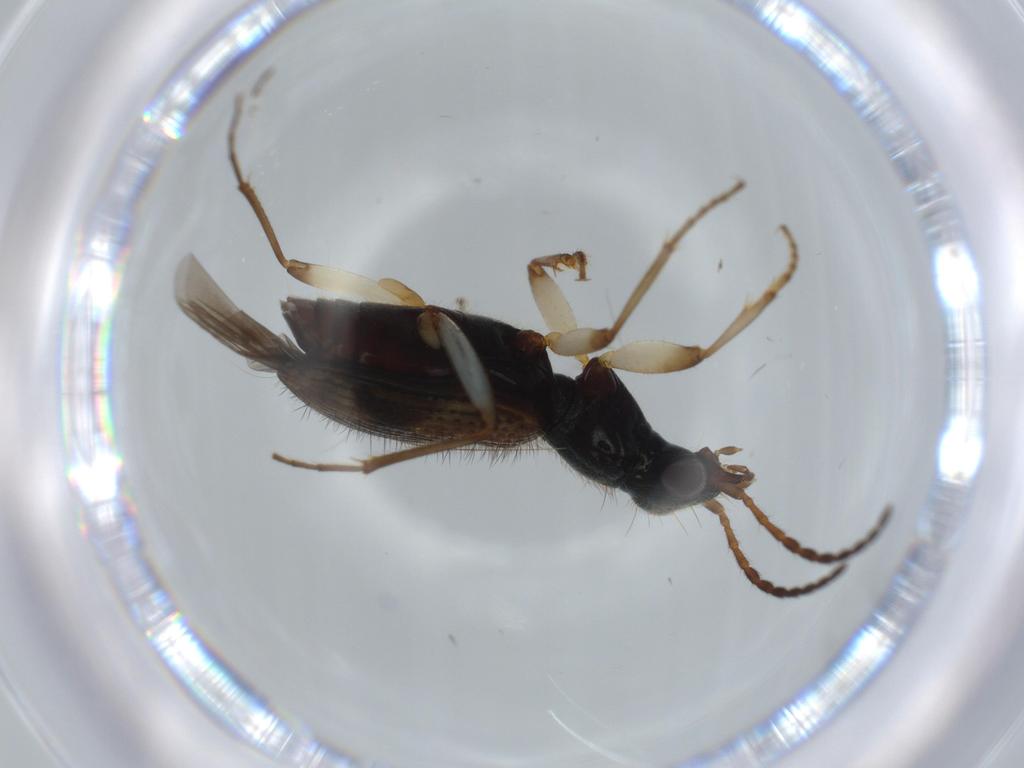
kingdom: Animalia
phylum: Arthropoda
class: Insecta
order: Coleoptera
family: Carabidae
